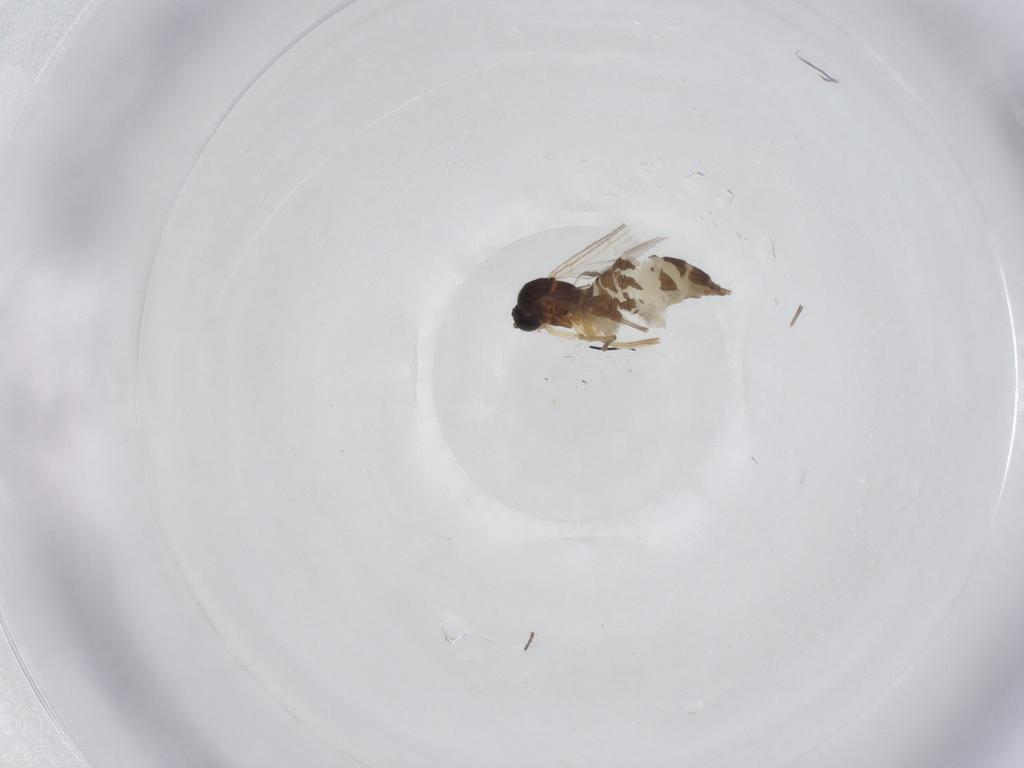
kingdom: Animalia
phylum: Arthropoda
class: Insecta
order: Diptera
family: Sciaridae
